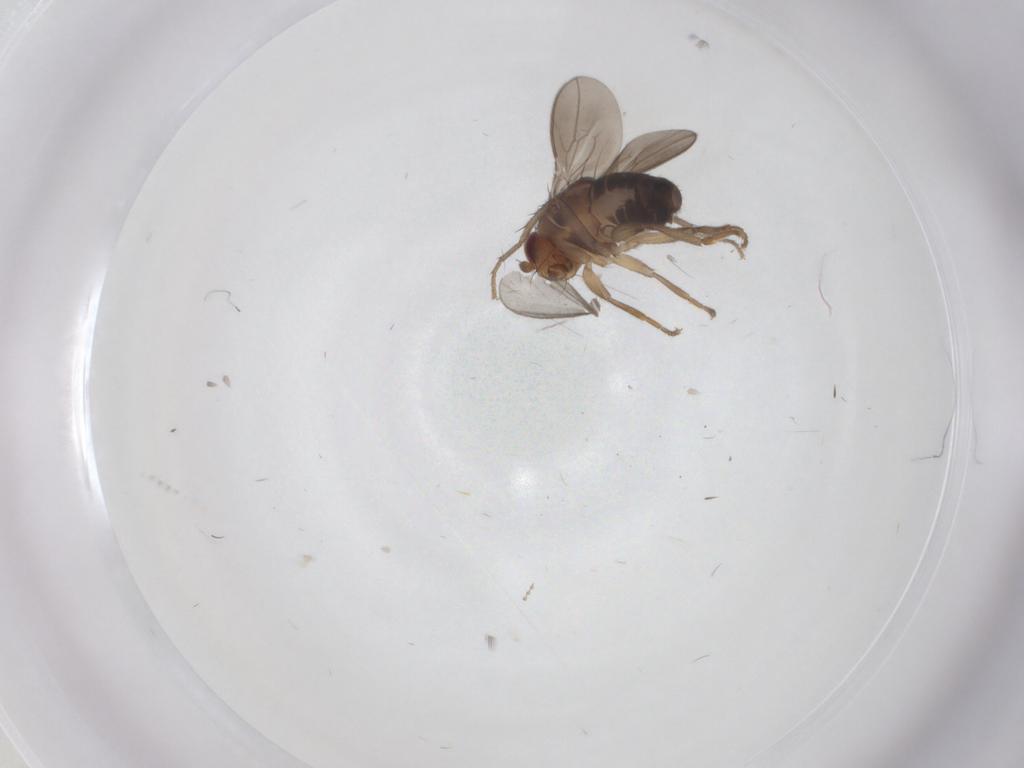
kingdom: Animalia
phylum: Arthropoda
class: Insecta
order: Diptera
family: Sphaeroceridae
